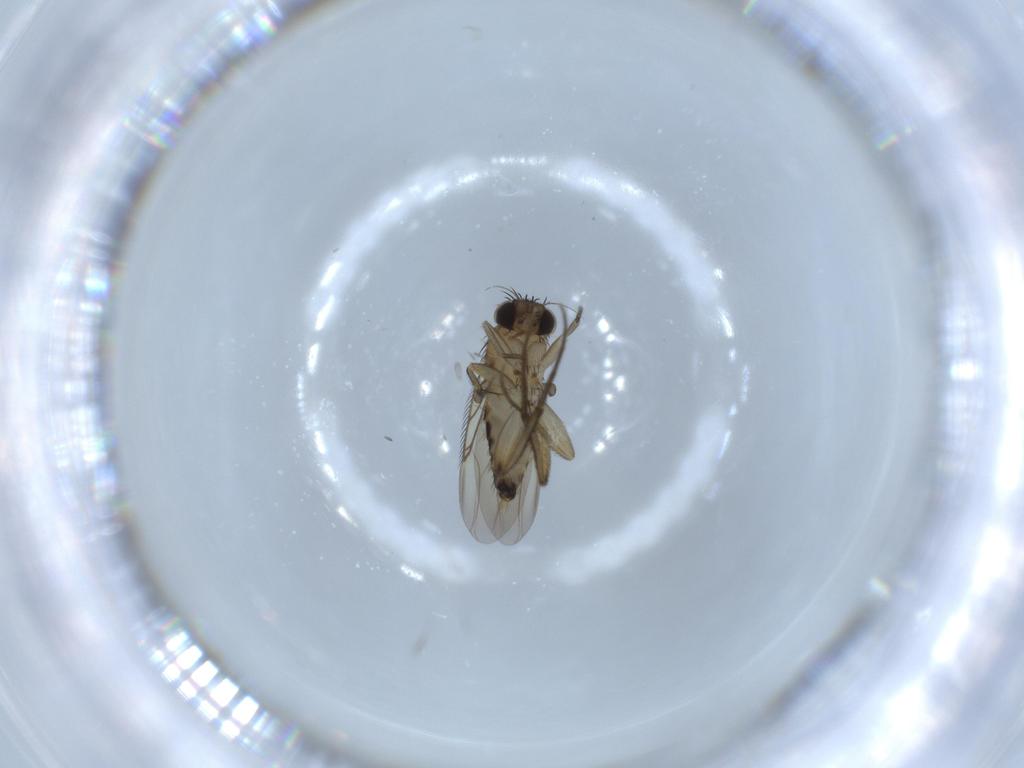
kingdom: Animalia
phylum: Arthropoda
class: Insecta
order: Diptera
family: Phoridae
